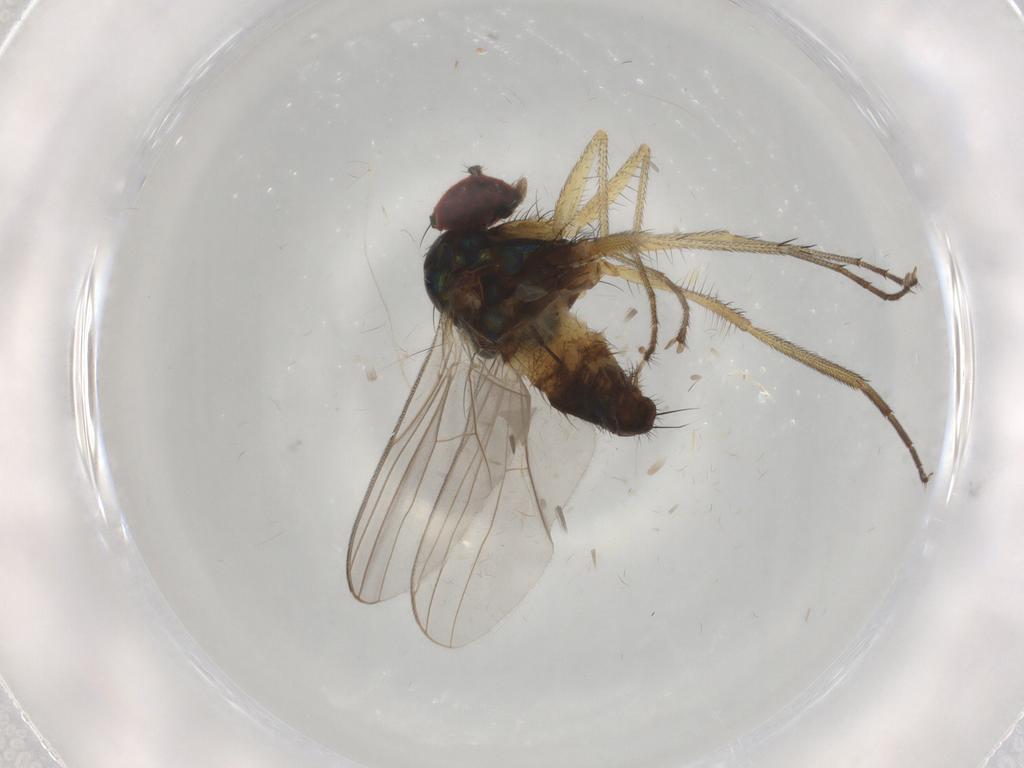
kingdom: Animalia
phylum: Arthropoda
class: Insecta
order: Diptera
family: Dolichopodidae
